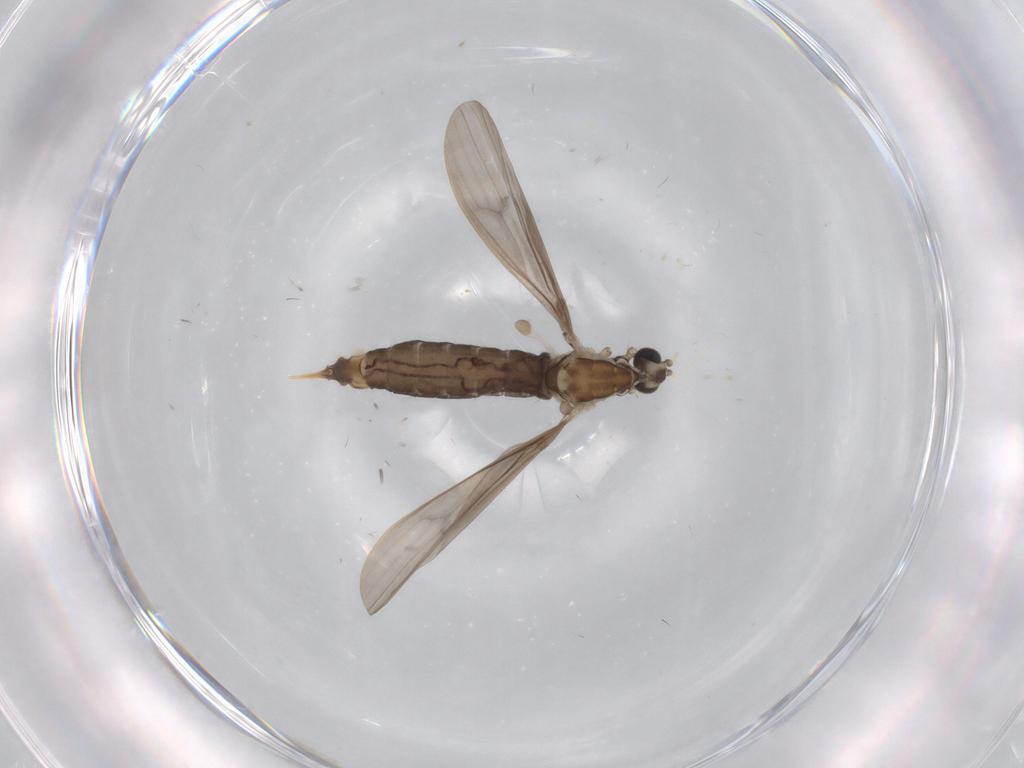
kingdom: Animalia
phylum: Arthropoda
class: Insecta
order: Diptera
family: Limoniidae
